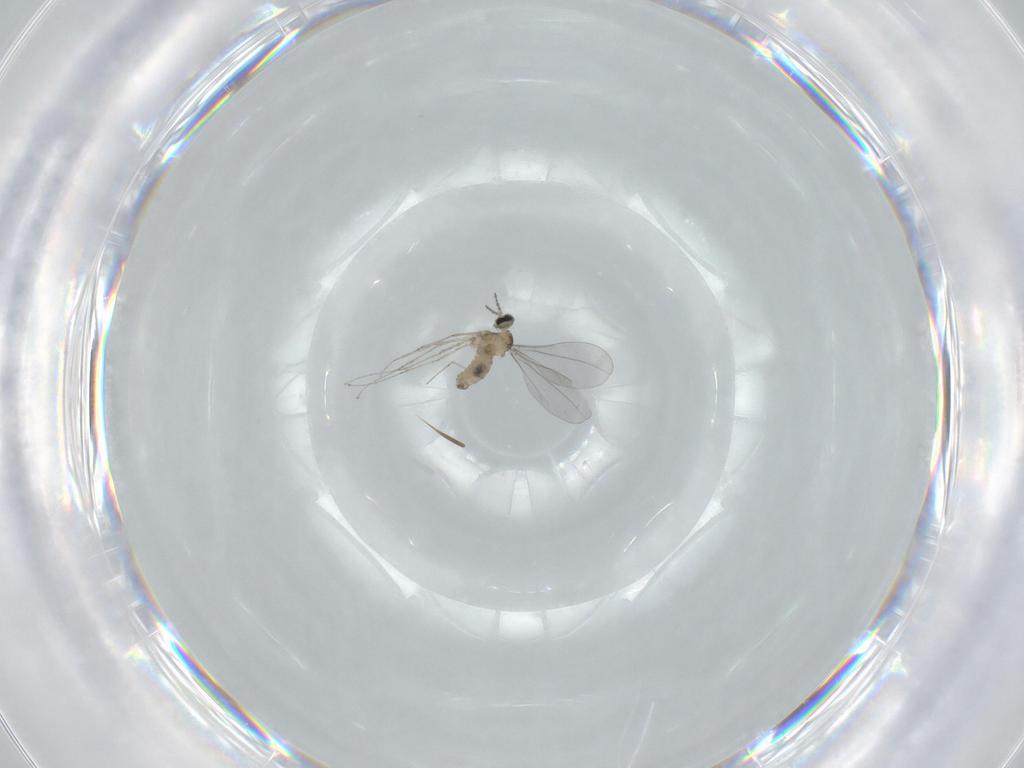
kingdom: Animalia
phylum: Arthropoda
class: Insecta
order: Diptera
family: Cecidomyiidae
